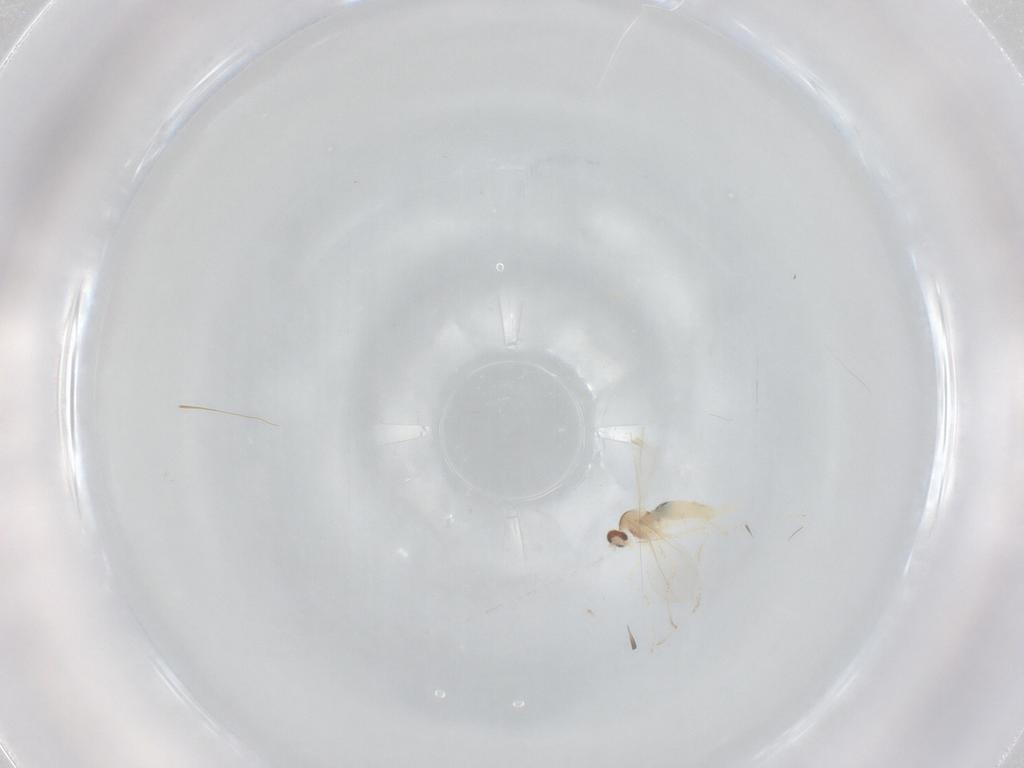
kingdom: Animalia
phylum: Arthropoda
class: Insecta
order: Diptera
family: Cecidomyiidae
